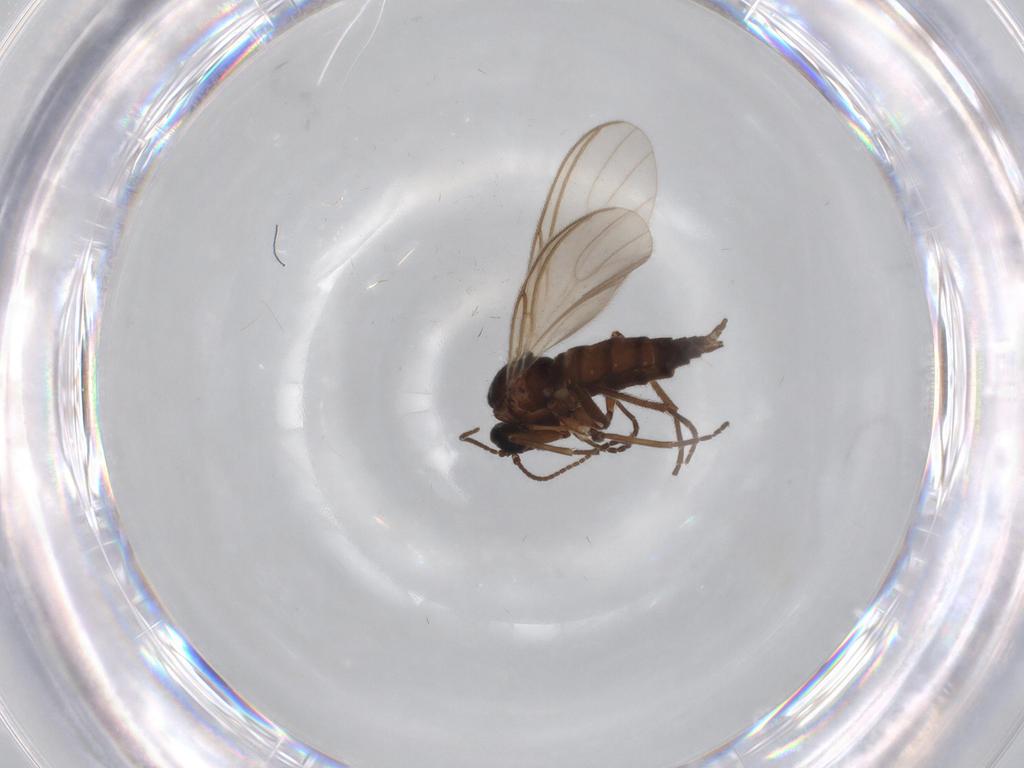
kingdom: Animalia
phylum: Arthropoda
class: Insecta
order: Diptera
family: Sciaridae
